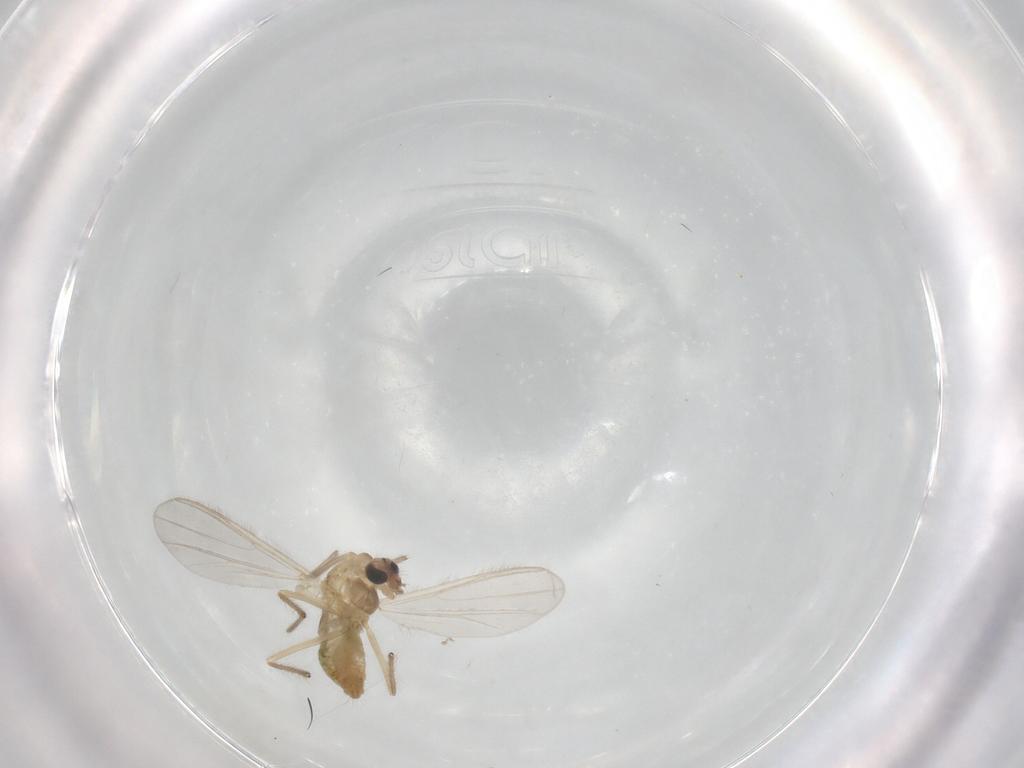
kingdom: Animalia
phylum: Arthropoda
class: Insecta
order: Diptera
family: Chironomidae
